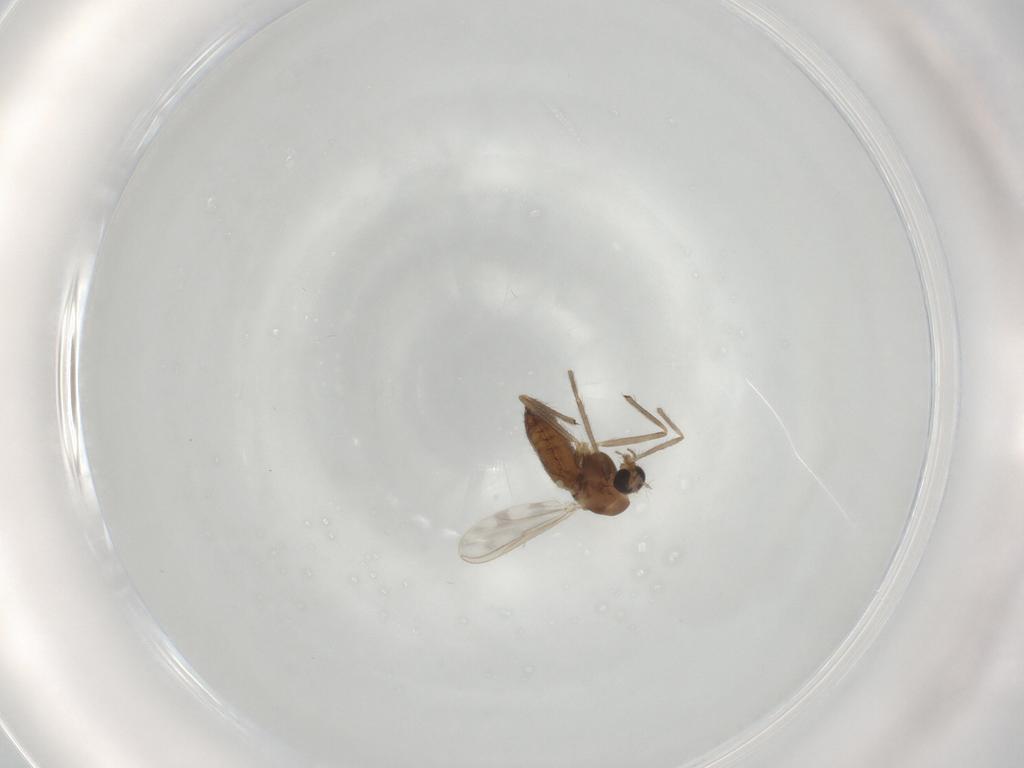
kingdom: Animalia
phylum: Arthropoda
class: Insecta
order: Diptera
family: Chironomidae
